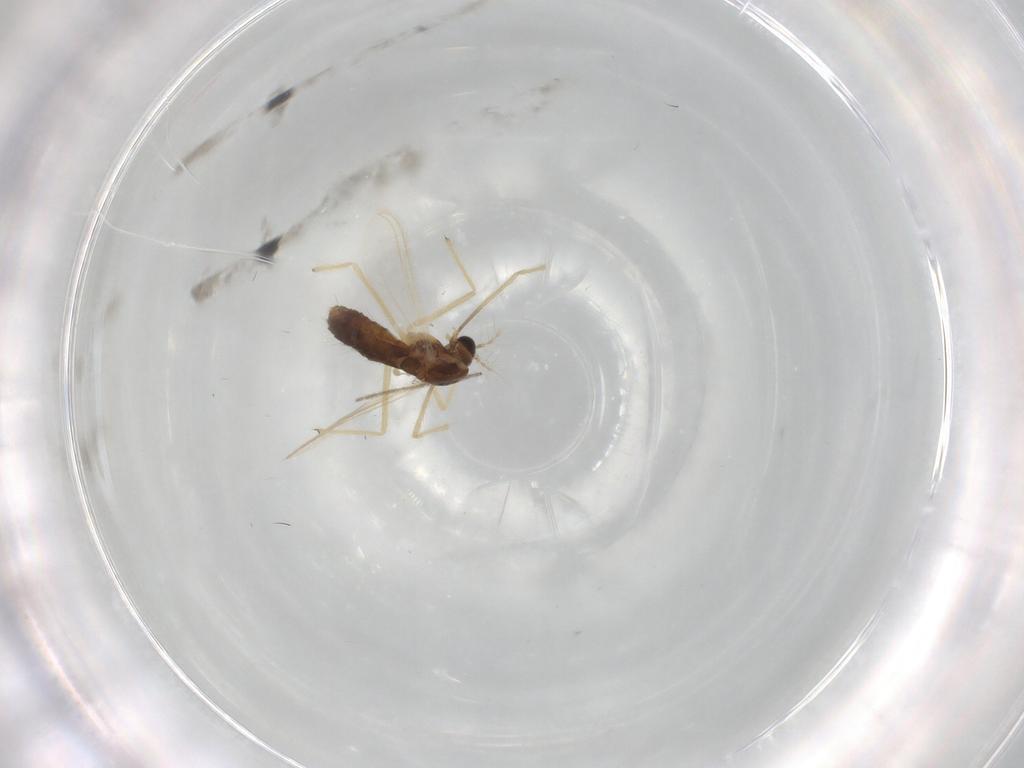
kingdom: Animalia
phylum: Arthropoda
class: Insecta
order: Diptera
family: Chironomidae
